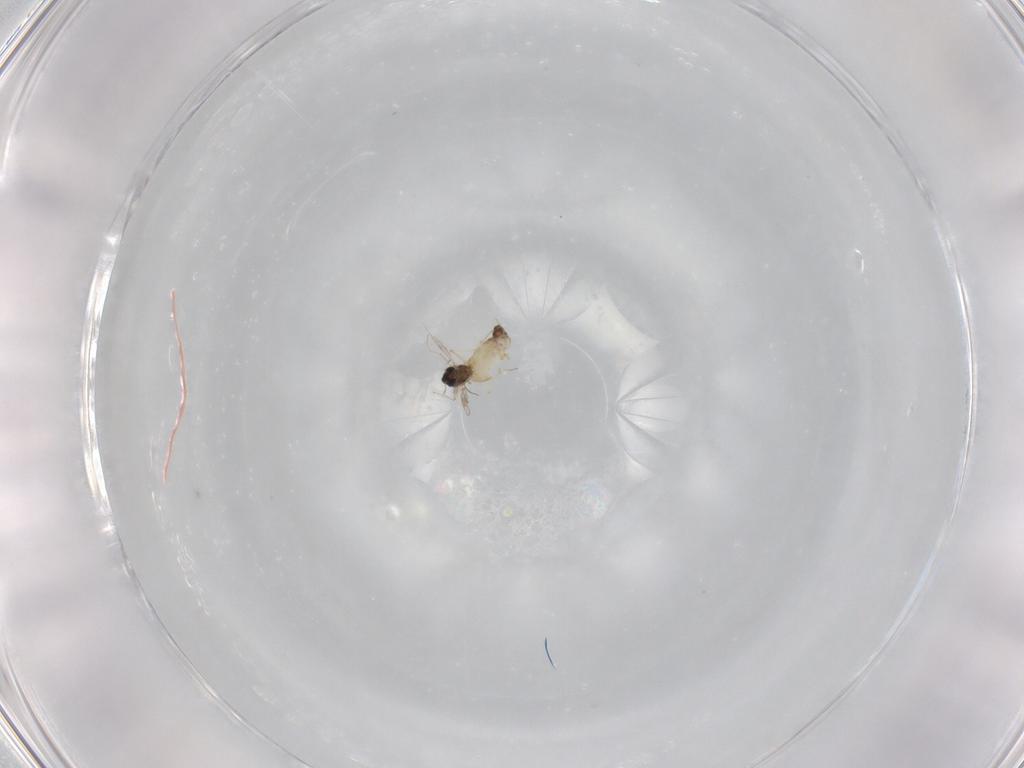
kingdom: Animalia
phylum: Arthropoda
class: Insecta
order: Diptera
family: Chironomidae
